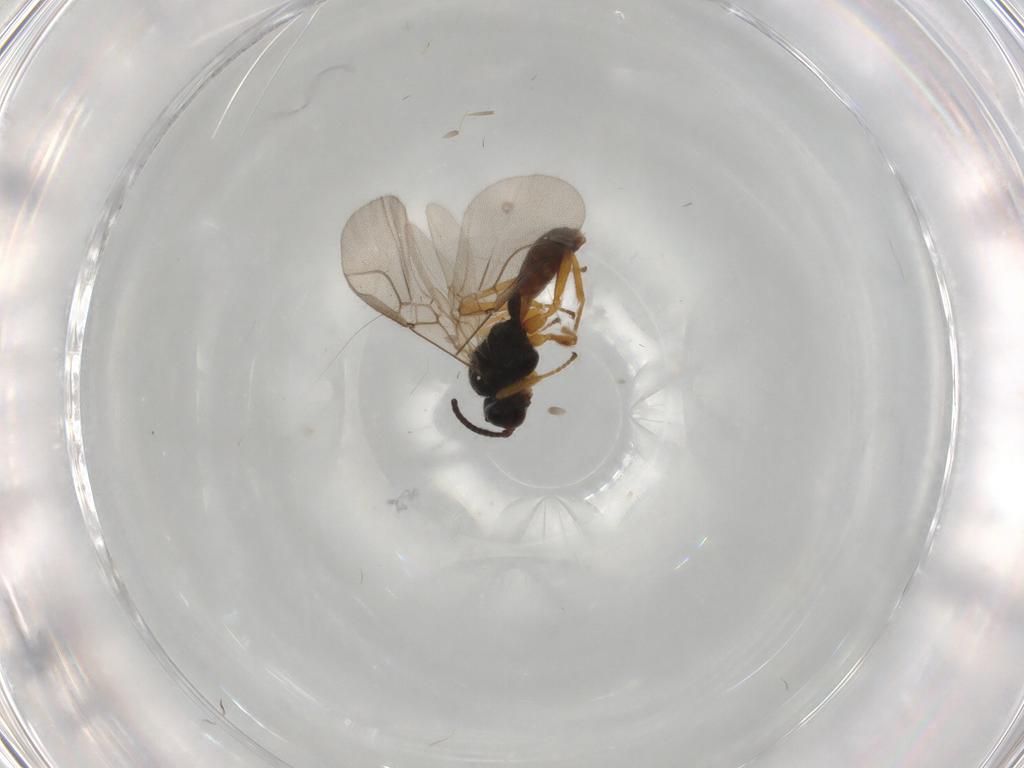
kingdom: Animalia
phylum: Arthropoda
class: Insecta
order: Hymenoptera
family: Braconidae
